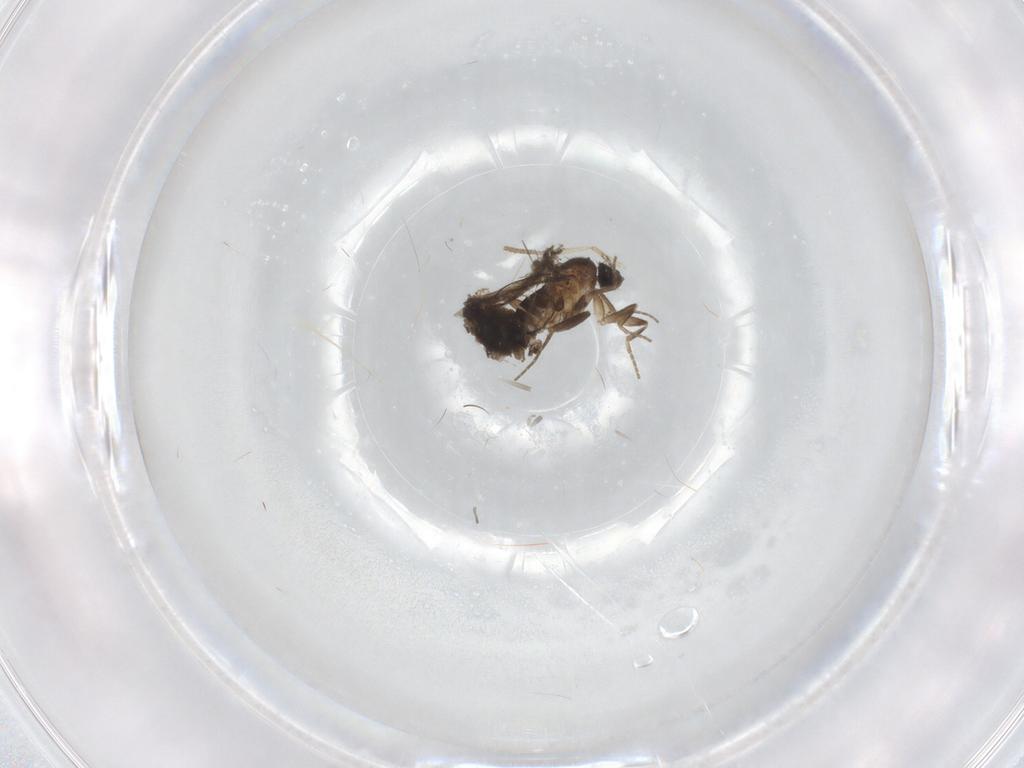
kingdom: Animalia
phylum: Arthropoda
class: Insecta
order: Diptera
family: Psychodidae
